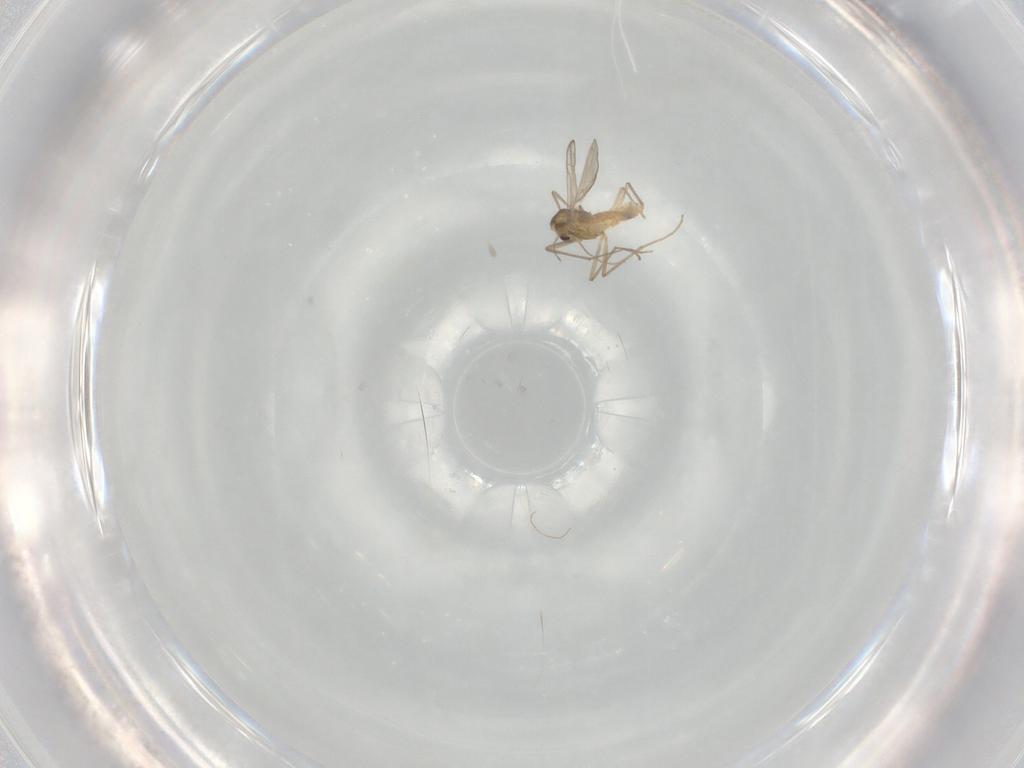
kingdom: Animalia
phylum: Arthropoda
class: Insecta
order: Diptera
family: Chironomidae
